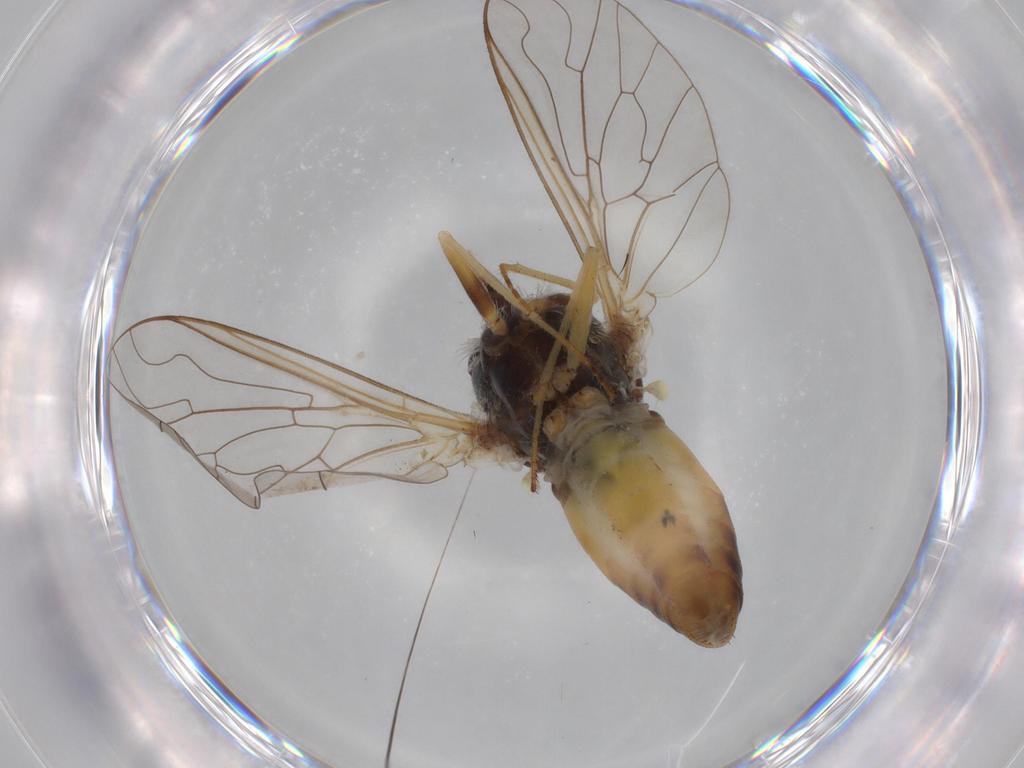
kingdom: Animalia
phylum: Arthropoda
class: Insecta
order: Diptera
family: Bombyliidae
